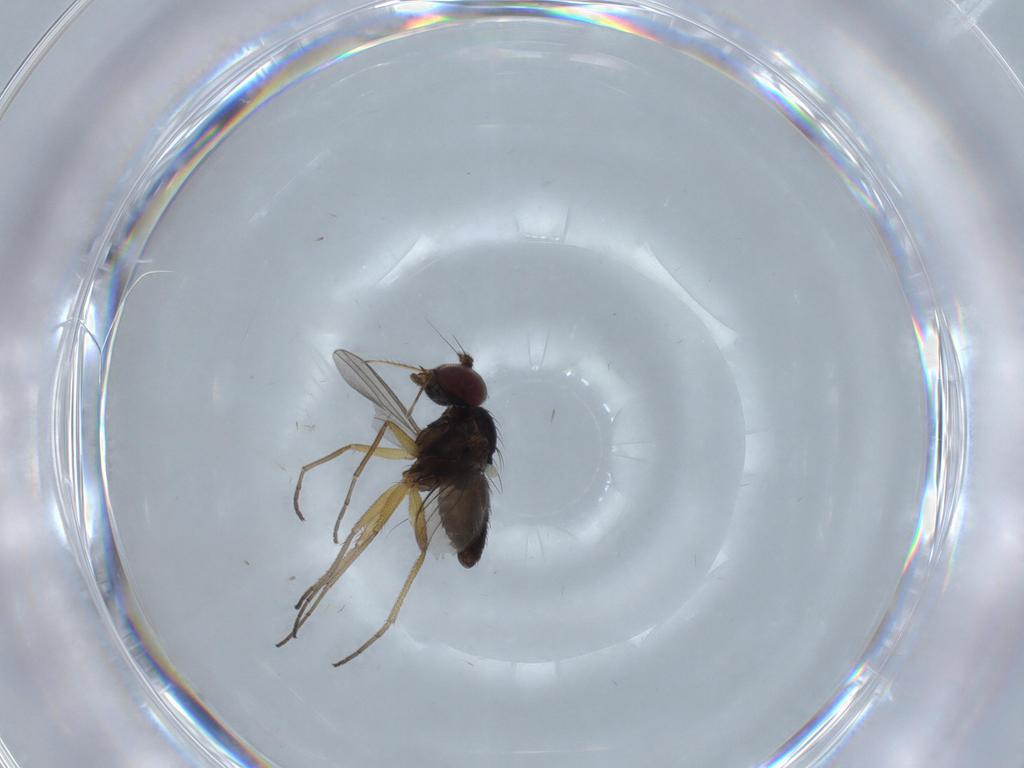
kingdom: Animalia
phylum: Arthropoda
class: Insecta
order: Diptera
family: Dolichopodidae
